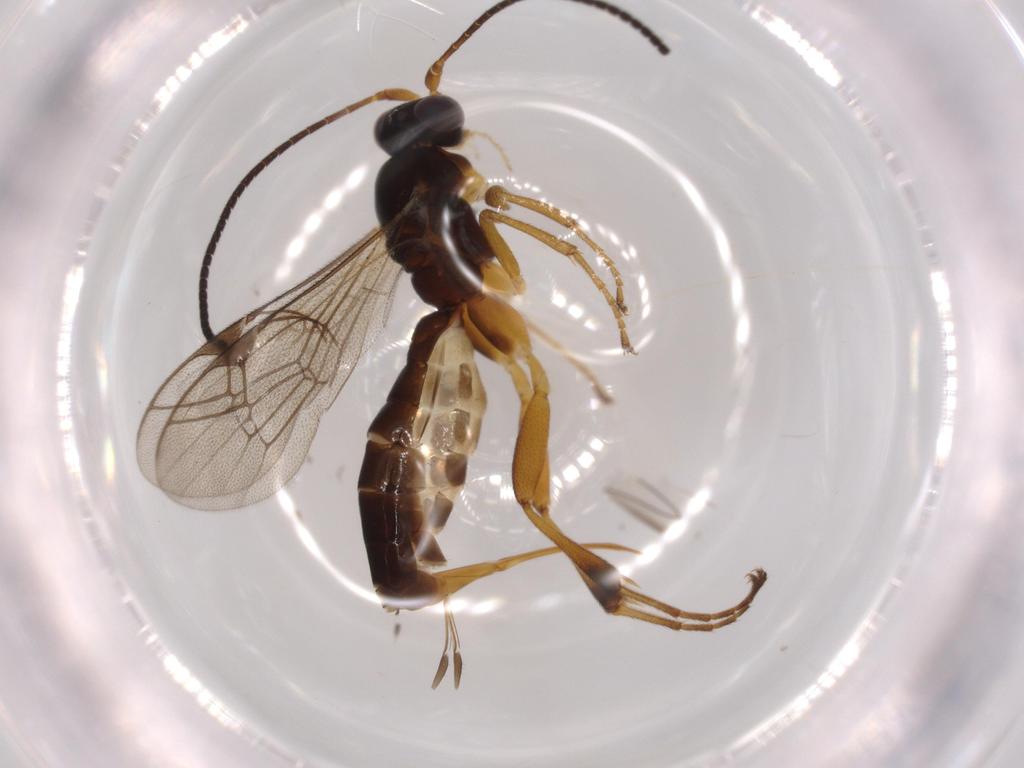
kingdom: Animalia
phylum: Arthropoda
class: Insecta
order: Hymenoptera
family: Scelionidae
